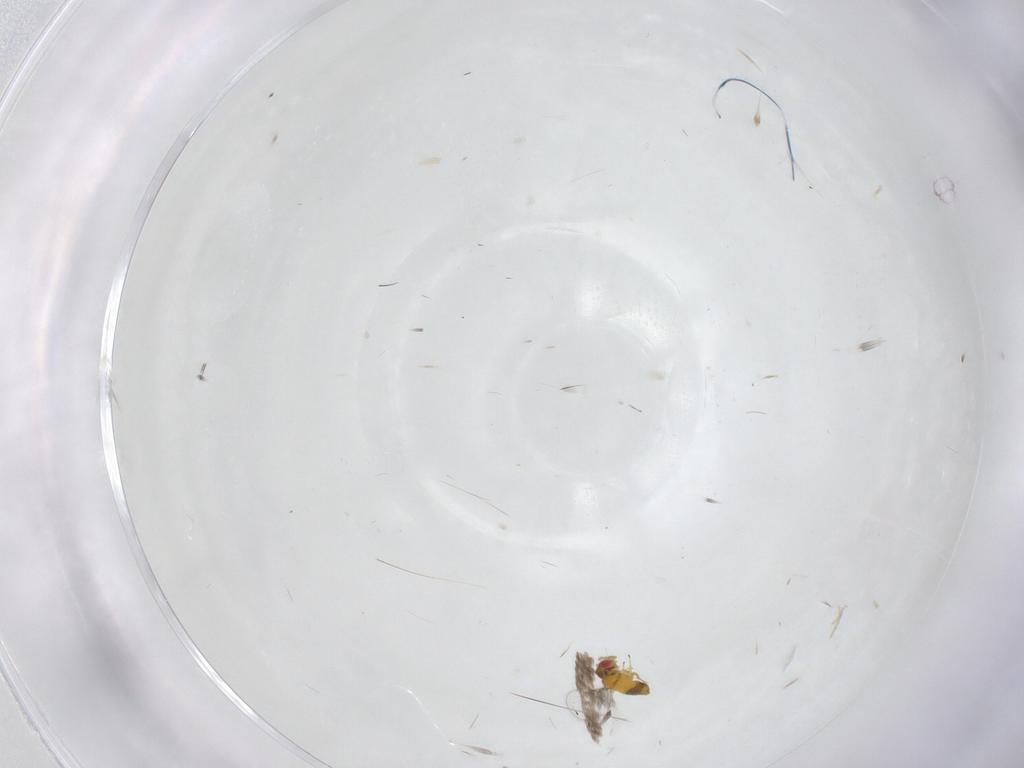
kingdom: Animalia
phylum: Arthropoda
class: Insecta
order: Hymenoptera
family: Trichogrammatidae
